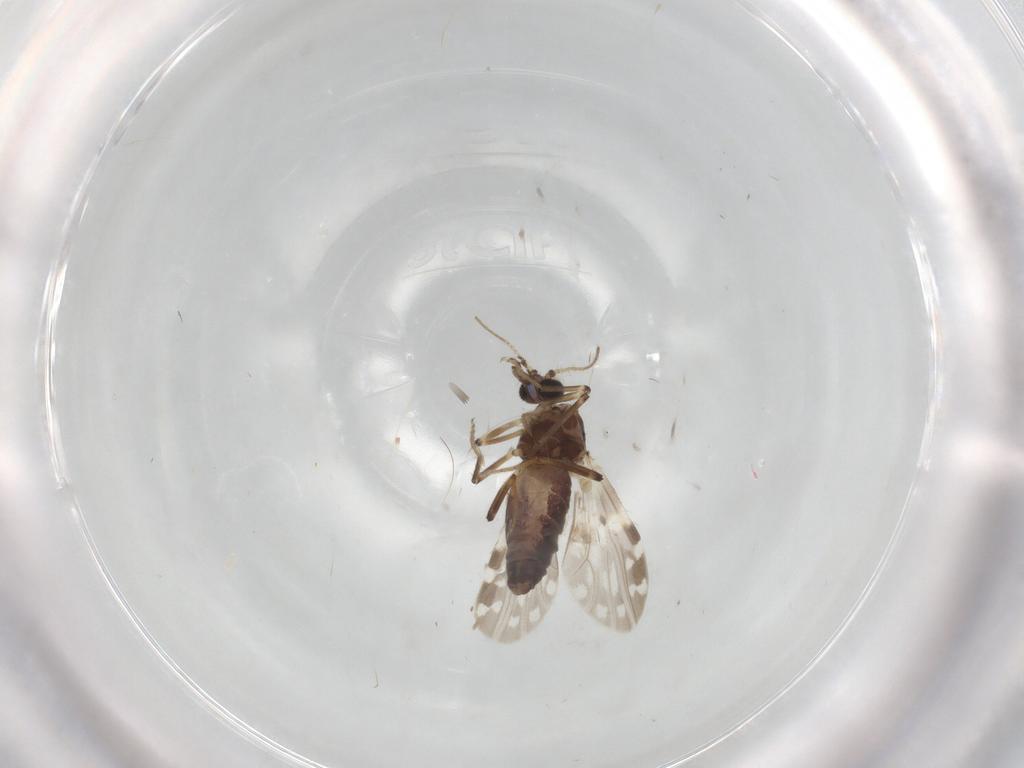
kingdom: Animalia
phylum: Arthropoda
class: Insecta
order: Diptera
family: Ceratopogonidae
